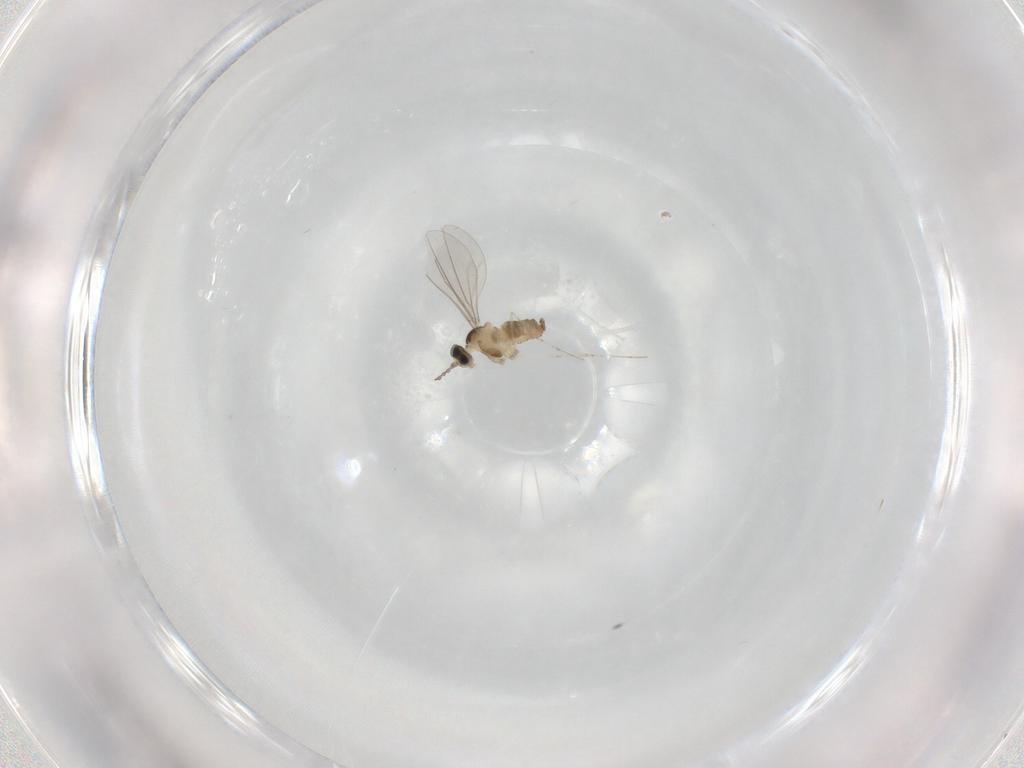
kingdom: Animalia
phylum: Arthropoda
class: Insecta
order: Diptera
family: Cecidomyiidae
